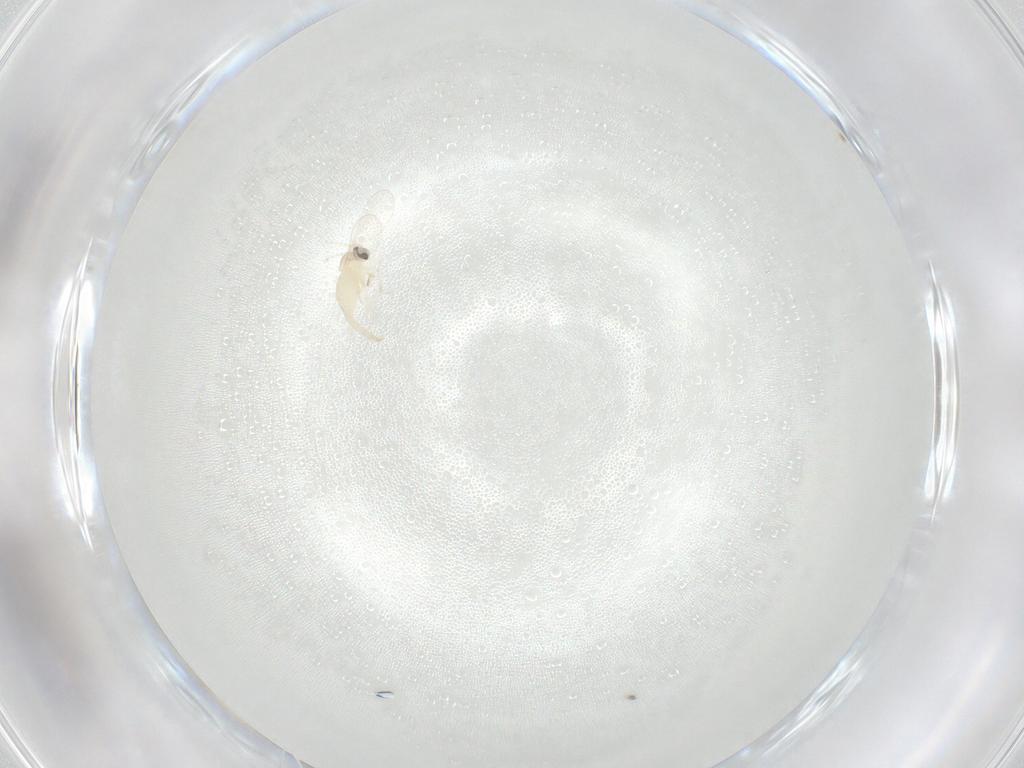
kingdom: Animalia
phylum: Arthropoda
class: Insecta
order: Diptera
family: Cecidomyiidae
